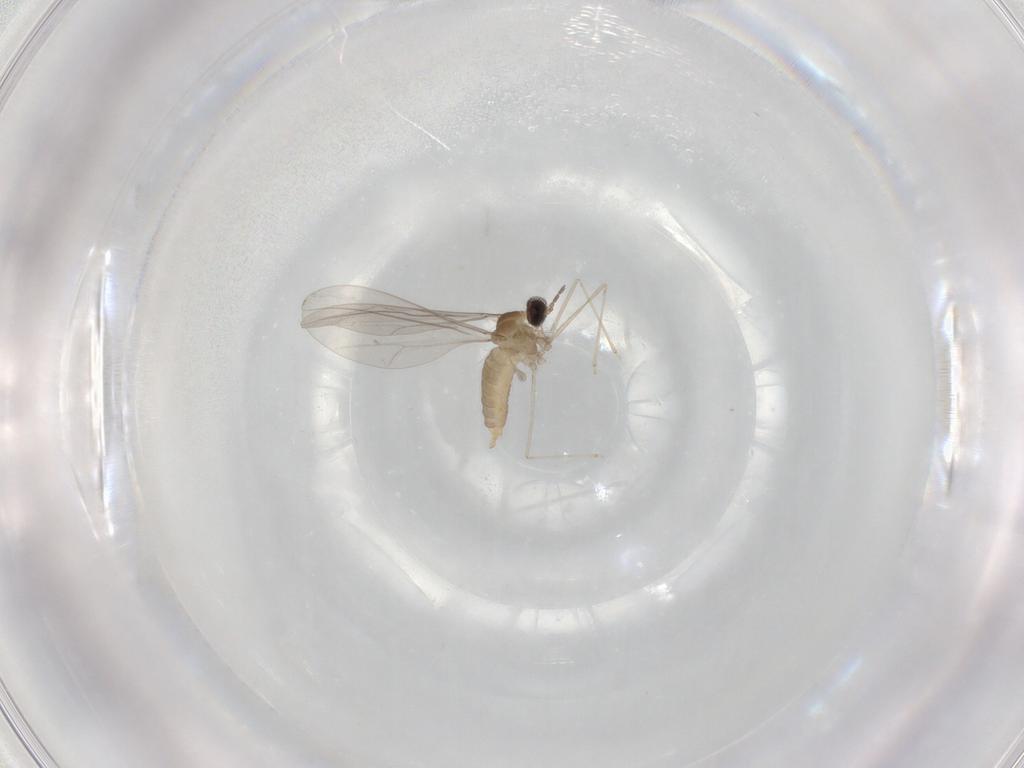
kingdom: Animalia
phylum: Arthropoda
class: Insecta
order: Diptera
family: Cecidomyiidae
